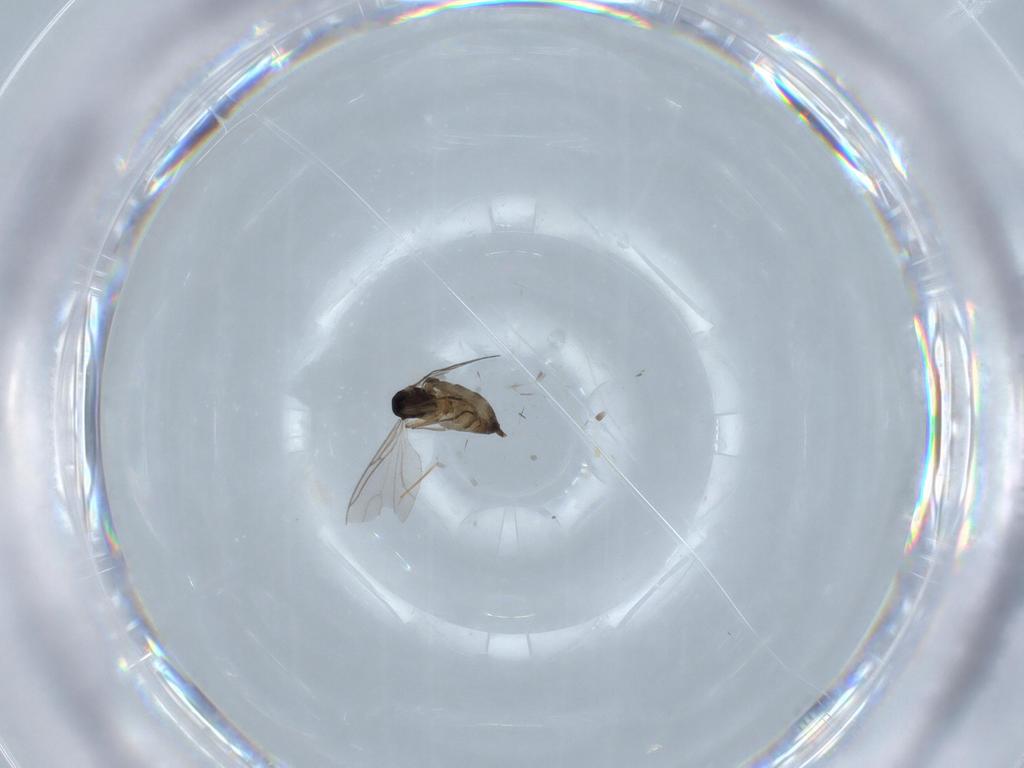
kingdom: Animalia
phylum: Arthropoda
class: Insecta
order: Diptera
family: Sciaridae
